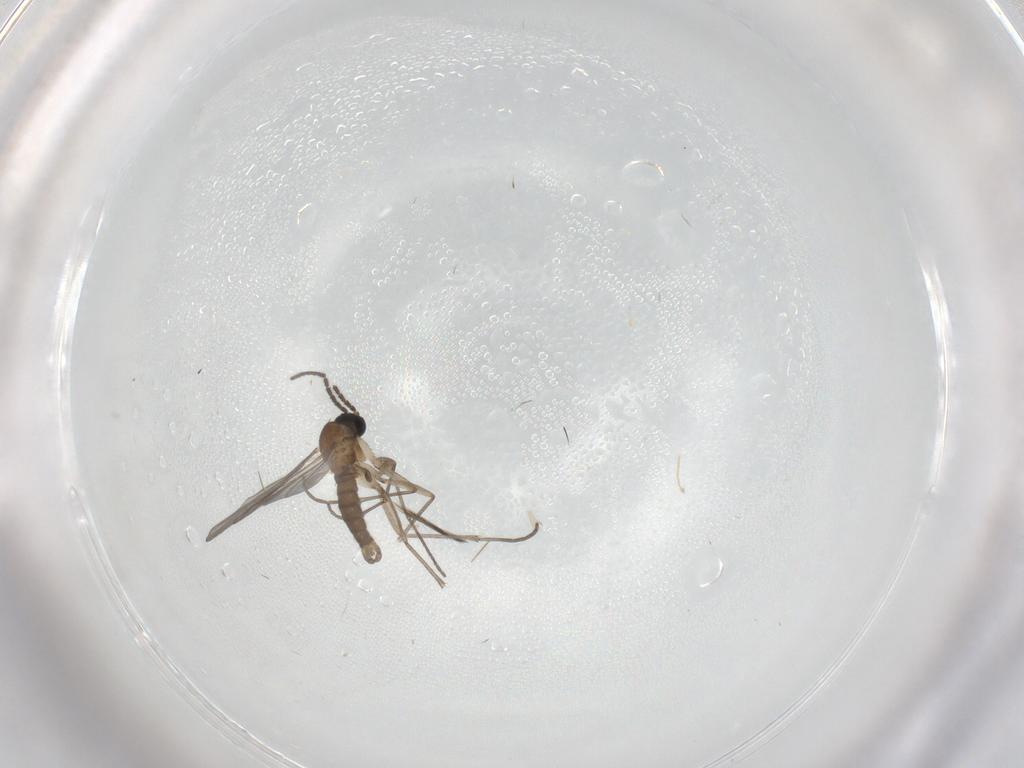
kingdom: Animalia
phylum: Arthropoda
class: Insecta
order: Diptera
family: Sciaridae
